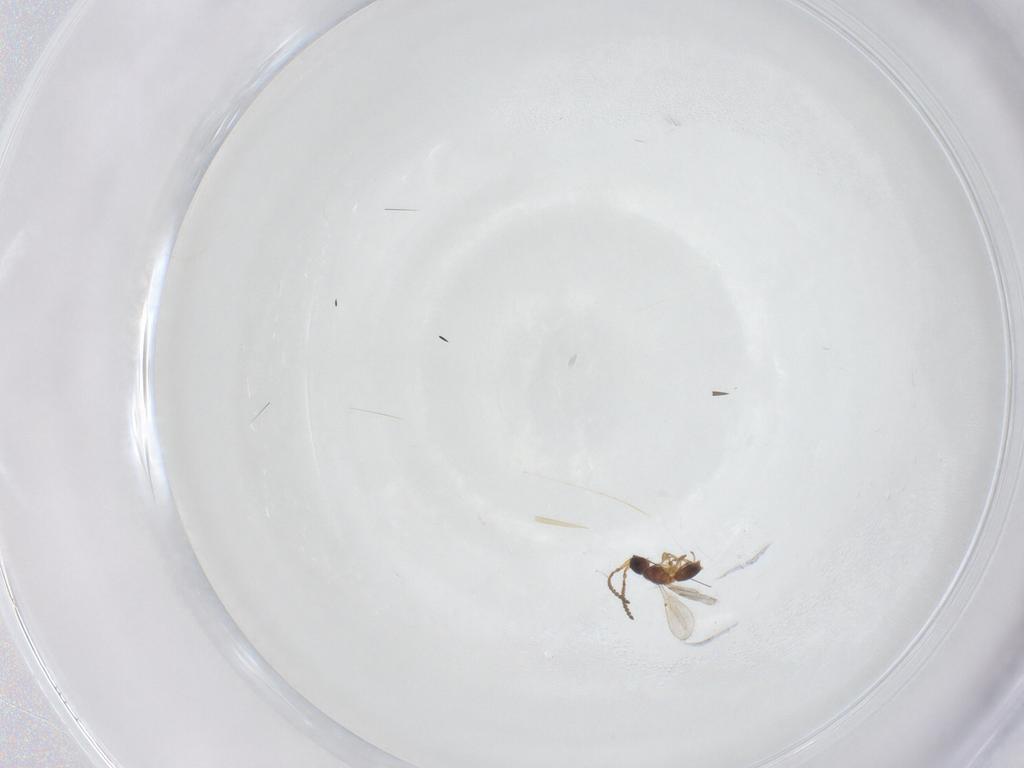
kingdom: Animalia
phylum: Arthropoda
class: Insecta
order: Hymenoptera
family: Diapriidae
